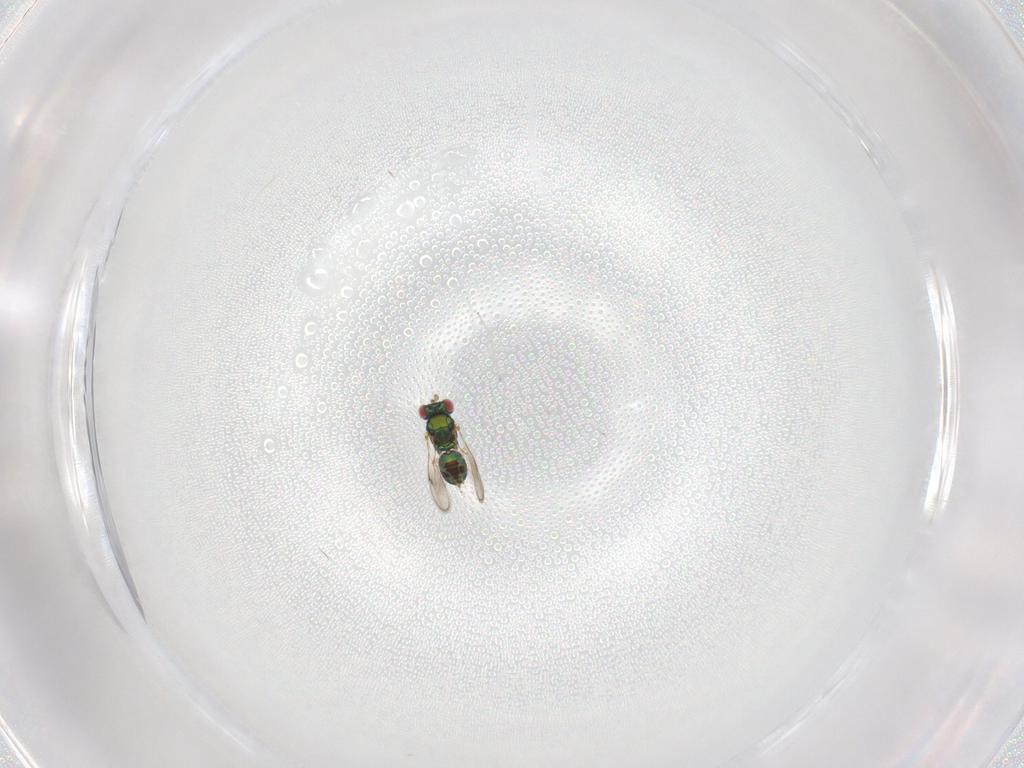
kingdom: Animalia
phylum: Arthropoda
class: Insecta
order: Hymenoptera
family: Eulophidae
